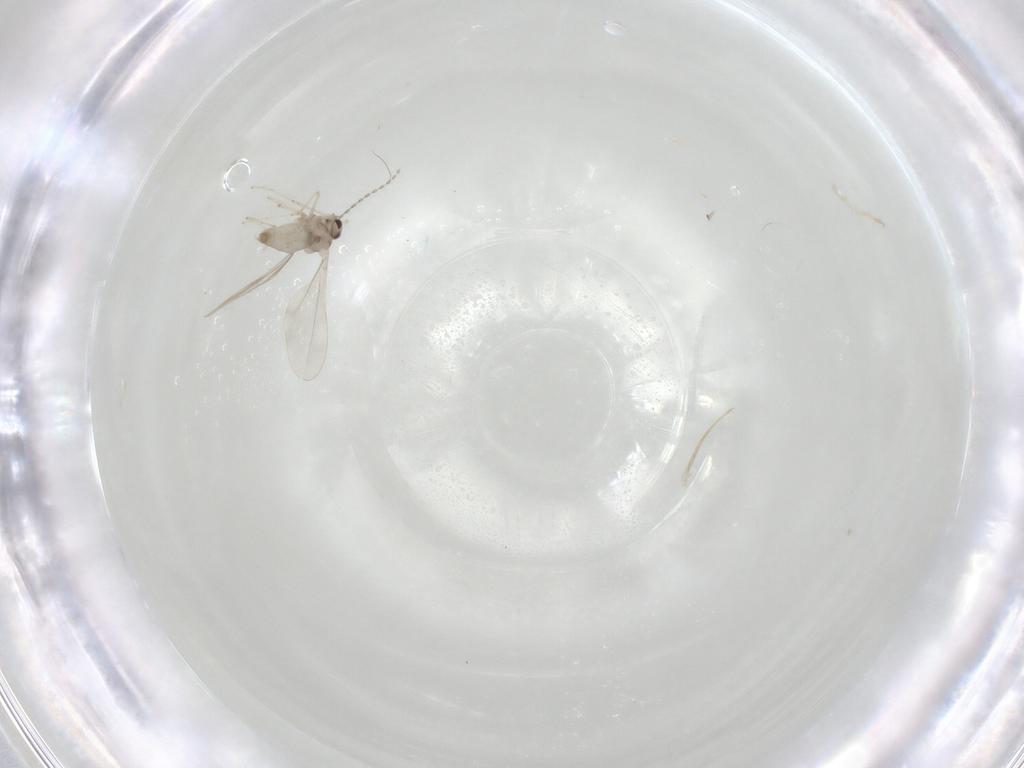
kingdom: Animalia
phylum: Arthropoda
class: Insecta
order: Diptera
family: Cecidomyiidae
